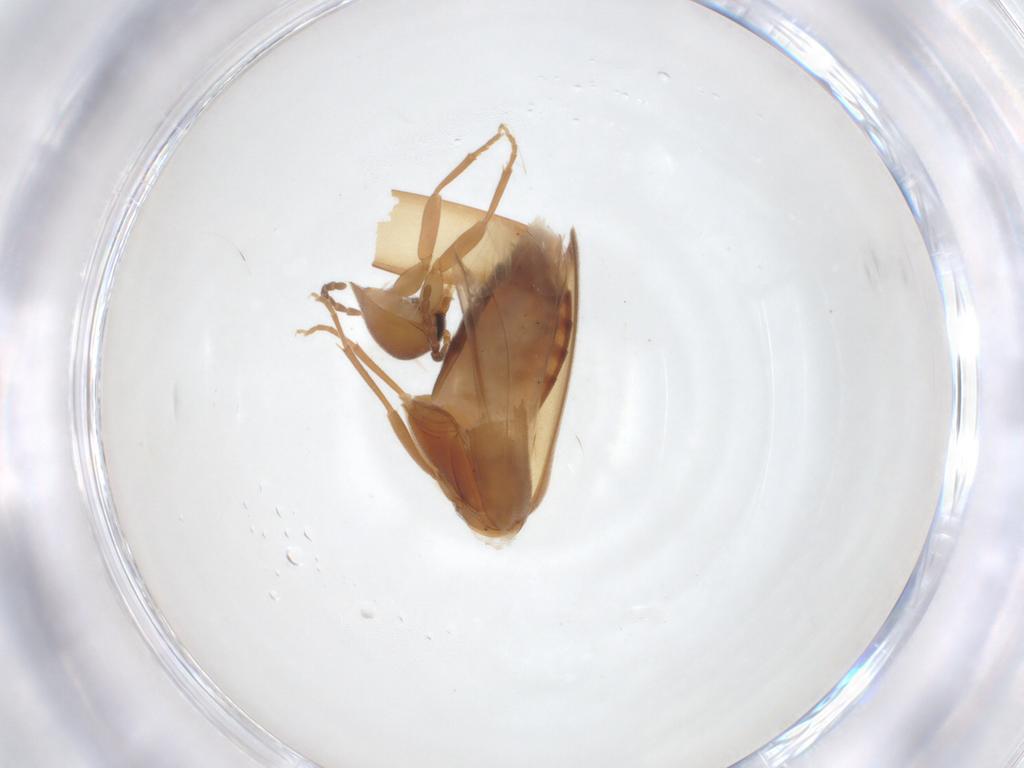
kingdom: Animalia
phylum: Arthropoda
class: Insecta
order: Coleoptera
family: Scraptiidae
